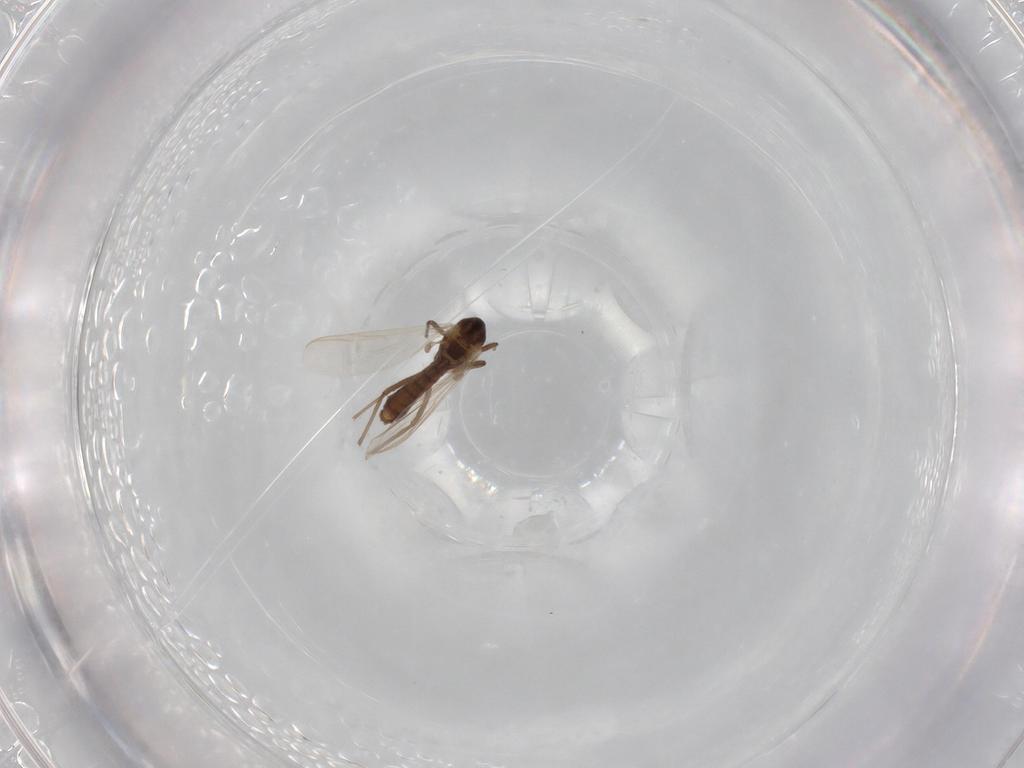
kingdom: Animalia
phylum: Arthropoda
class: Insecta
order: Diptera
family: Chironomidae
